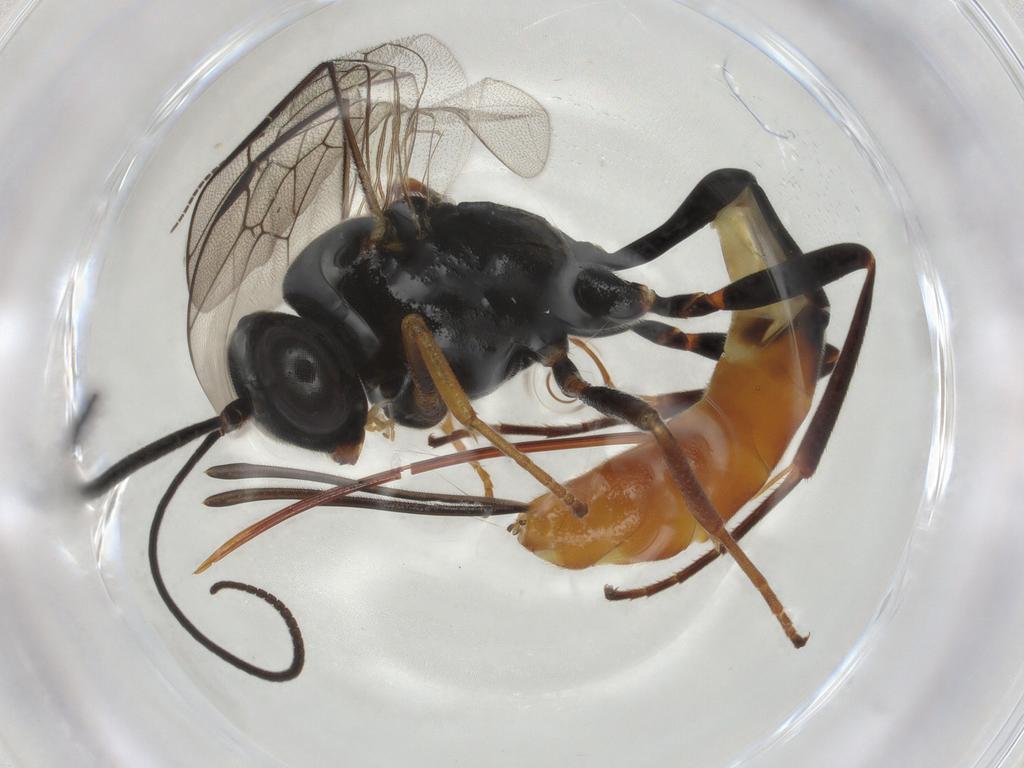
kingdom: Animalia
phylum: Arthropoda
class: Insecta
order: Hymenoptera
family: Ichneumonidae
